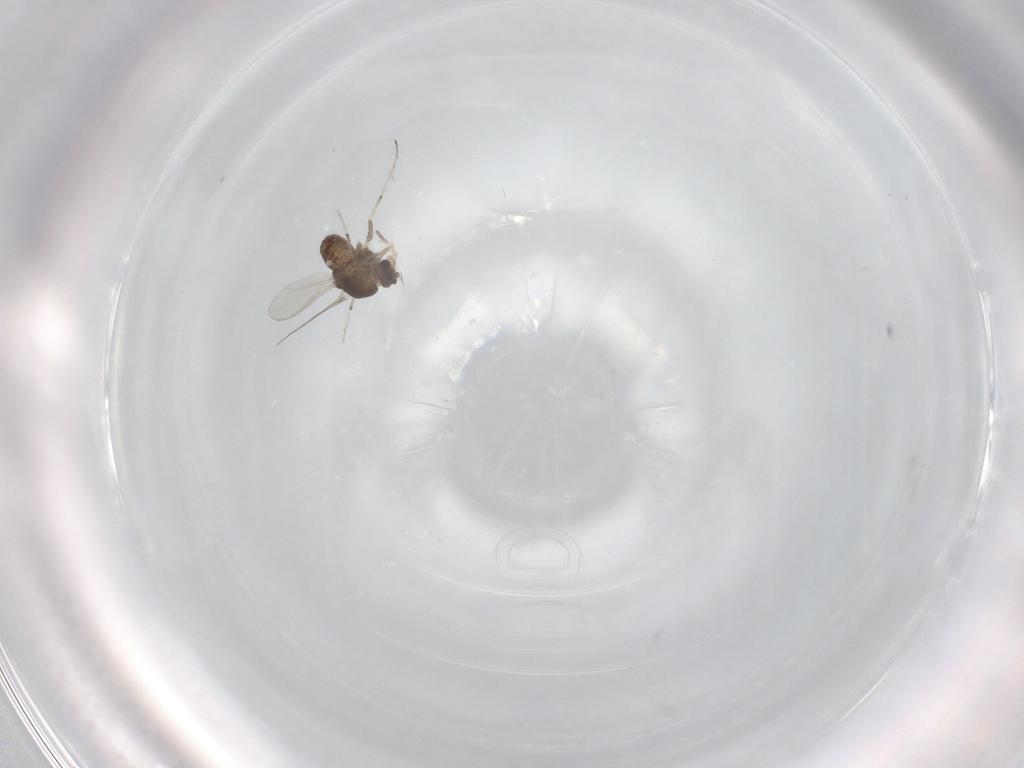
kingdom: Animalia
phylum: Arthropoda
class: Insecta
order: Diptera
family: Chironomidae
